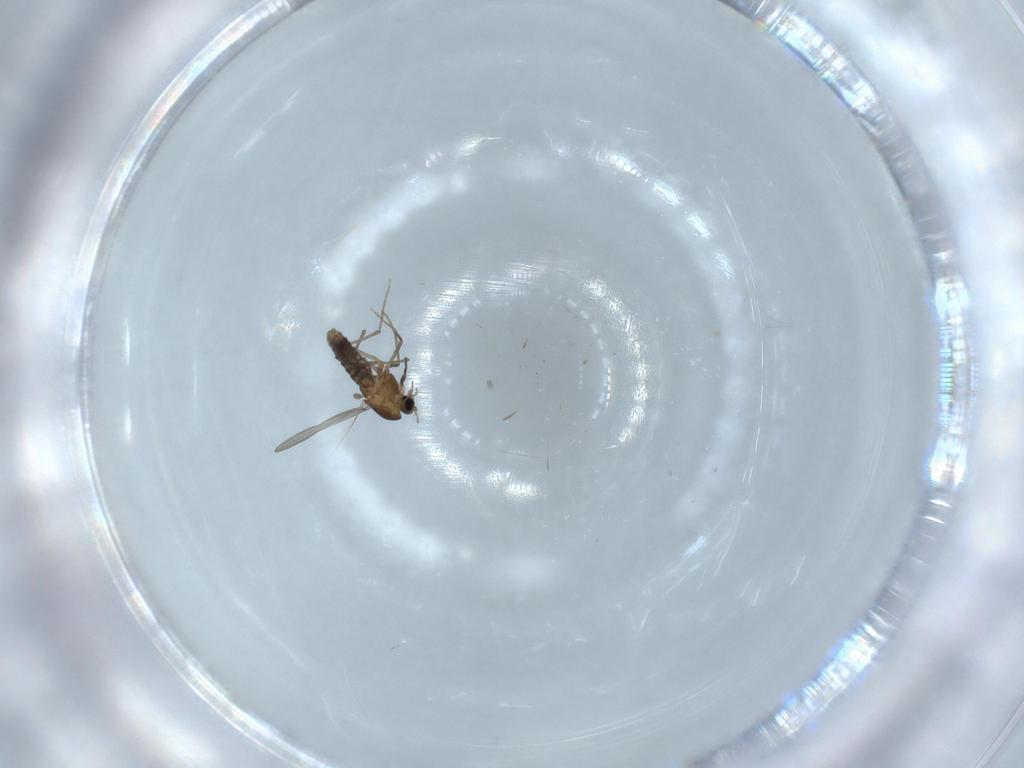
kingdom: Animalia
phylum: Arthropoda
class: Insecta
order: Diptera
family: Chironomidae
